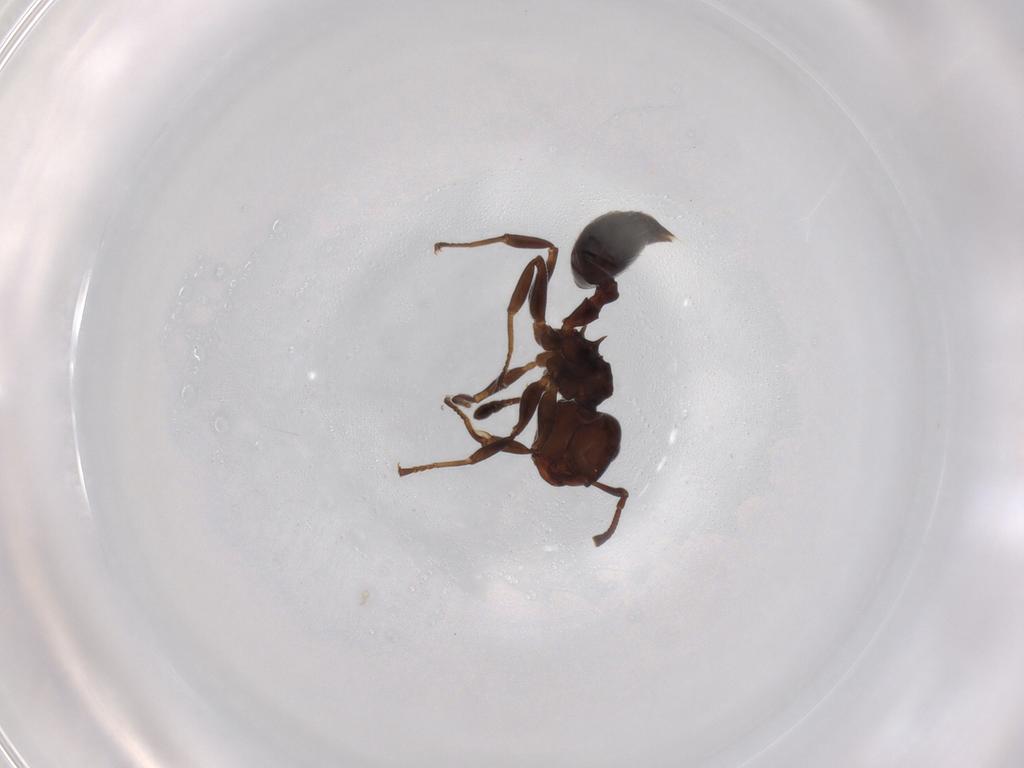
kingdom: Animalia
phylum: Arthropoda
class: Insecta
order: Hymenoptera
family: Formicidae
